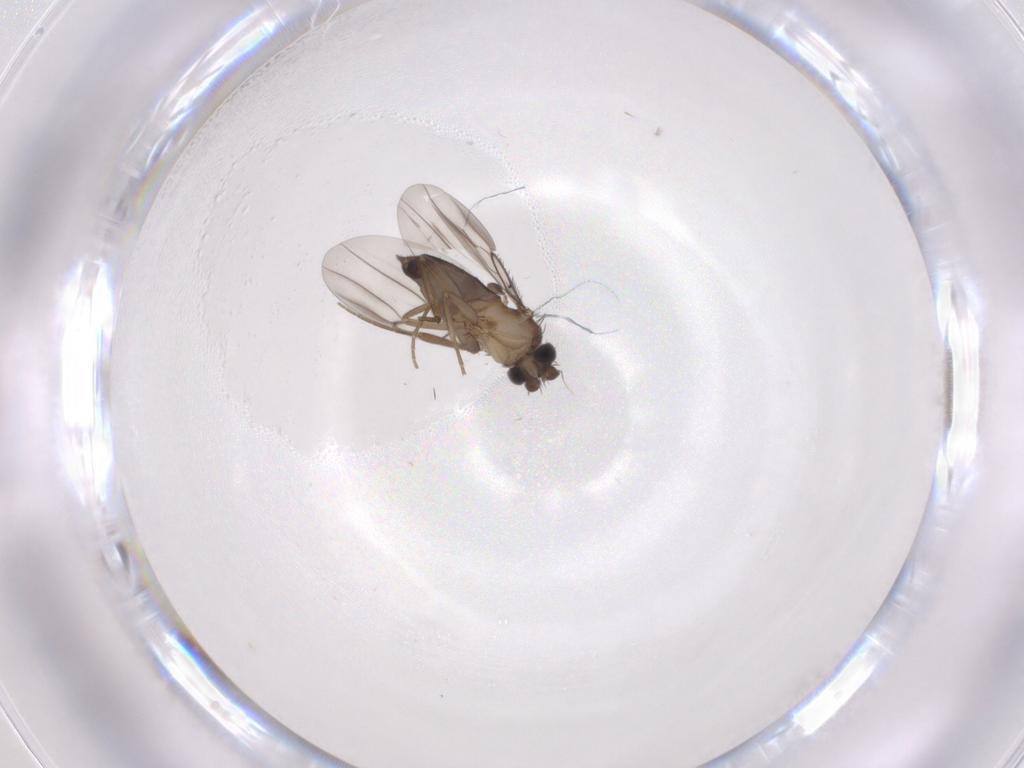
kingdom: Animalia
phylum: Arthropoda
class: Insecta
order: Diptera
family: Phoridae
